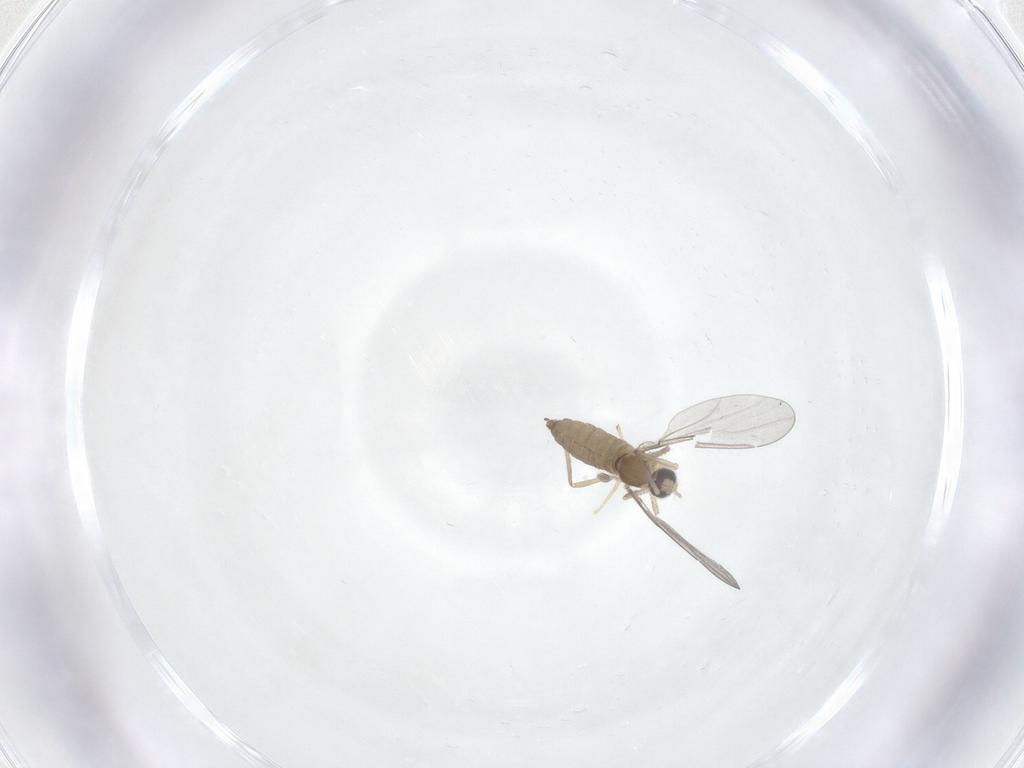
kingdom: Animalia
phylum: Arthropoda
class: Insecta
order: Diptera
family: Cecidomyiidae
